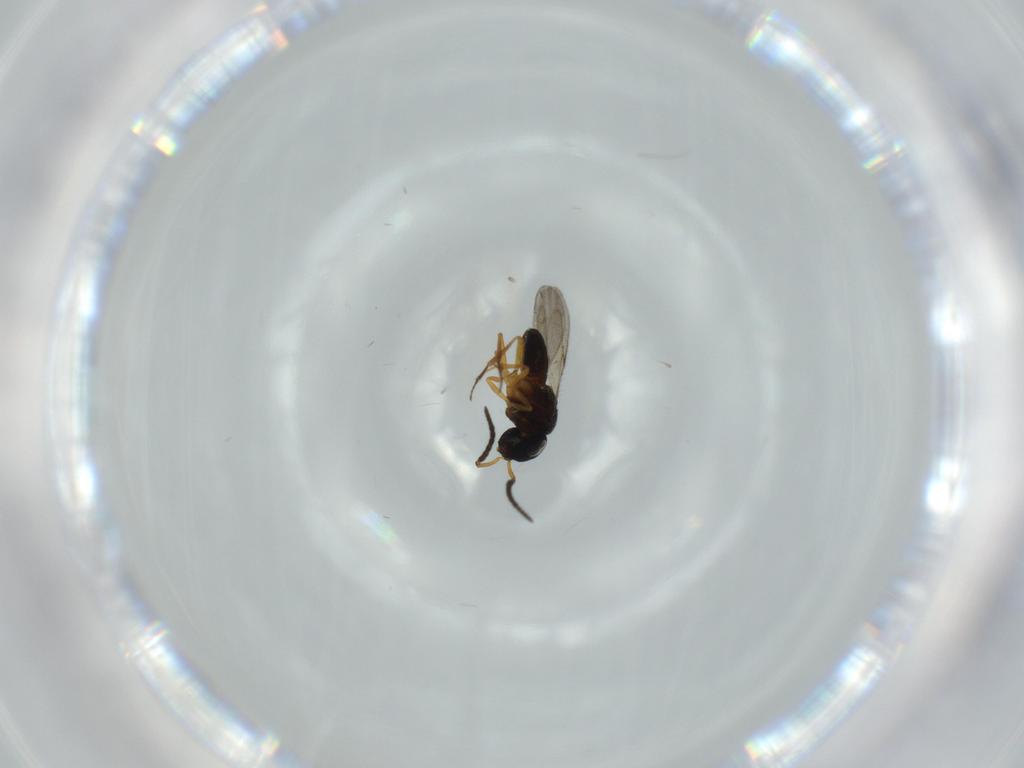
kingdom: Animalia
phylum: Arthropoda
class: Insecta
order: Hymenoptera
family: Scelionidae
